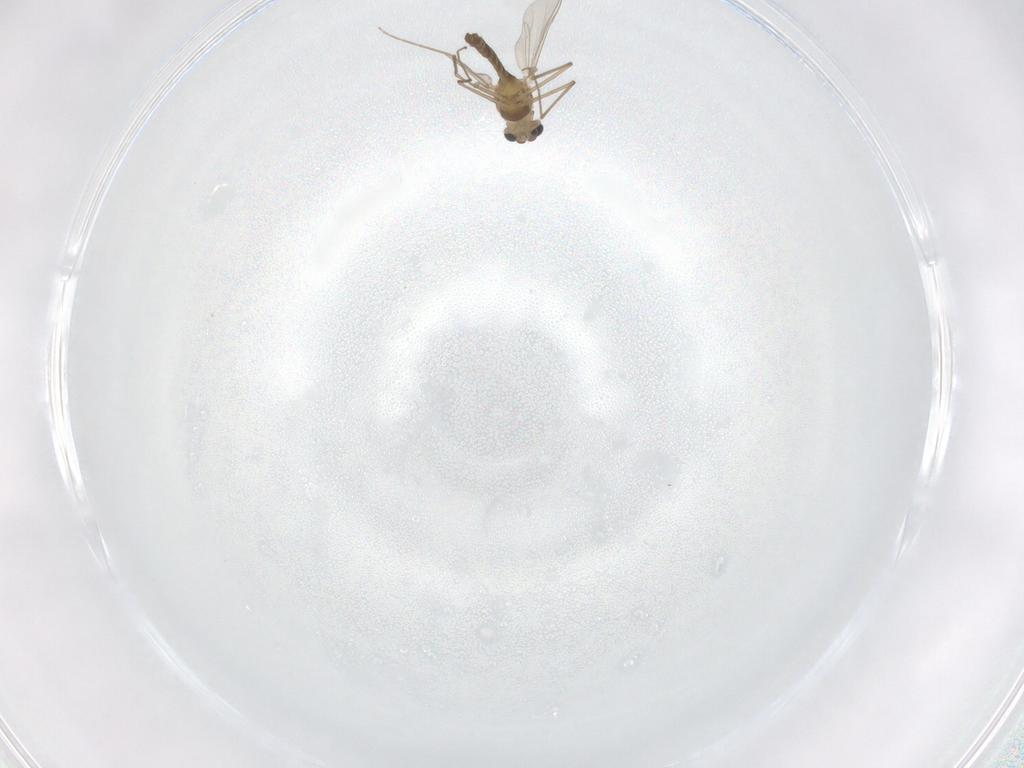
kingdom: Animalia
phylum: Arthropoda
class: Insecta
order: Diptera
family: Chironomidae
